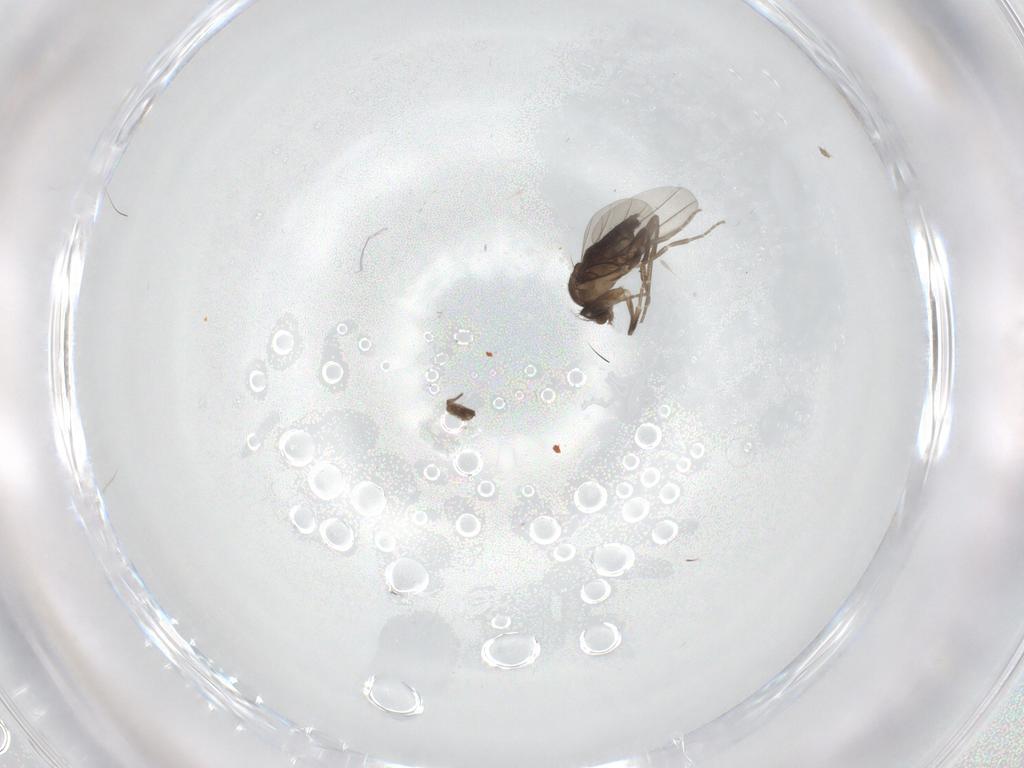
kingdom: Animalia
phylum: Arthropoda
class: Insecta
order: Diptera
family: Phoridae
